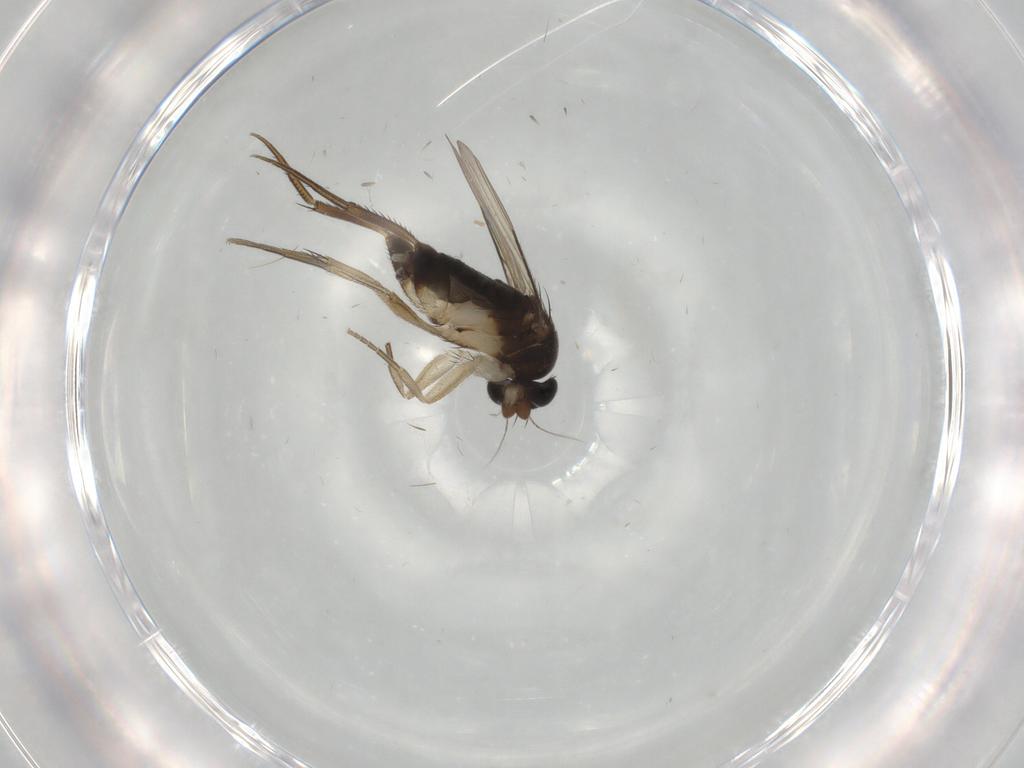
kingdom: Animalia
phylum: Arthropoda
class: Insecta
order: Diptera
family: Phoridae
